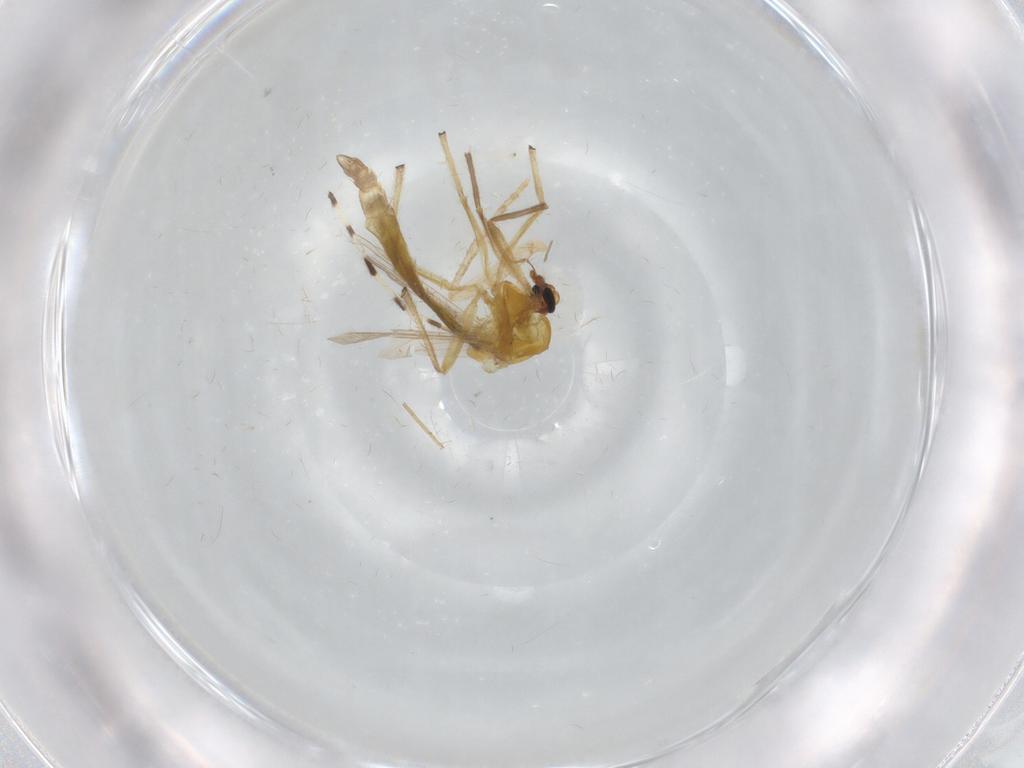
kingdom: Animalia
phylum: Arthropoda
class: Insecta
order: Diptera
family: Chironomidae
